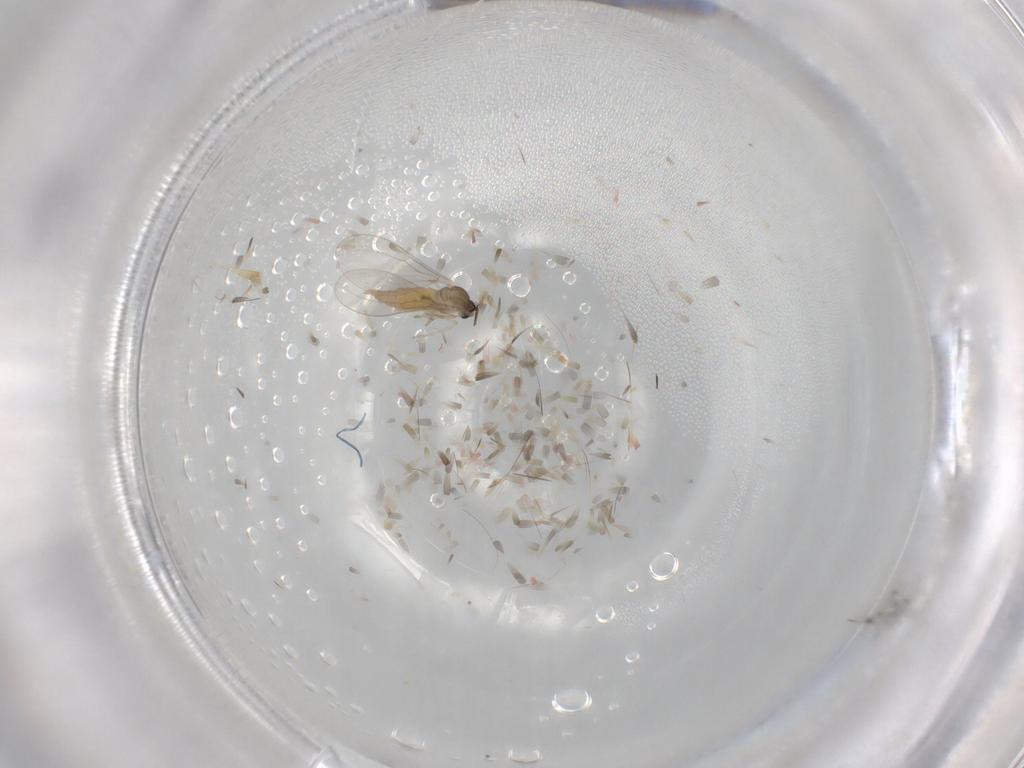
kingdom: Animalia
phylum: Arthropoda
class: Insecta
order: Diptera
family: Cecidomyiidae
